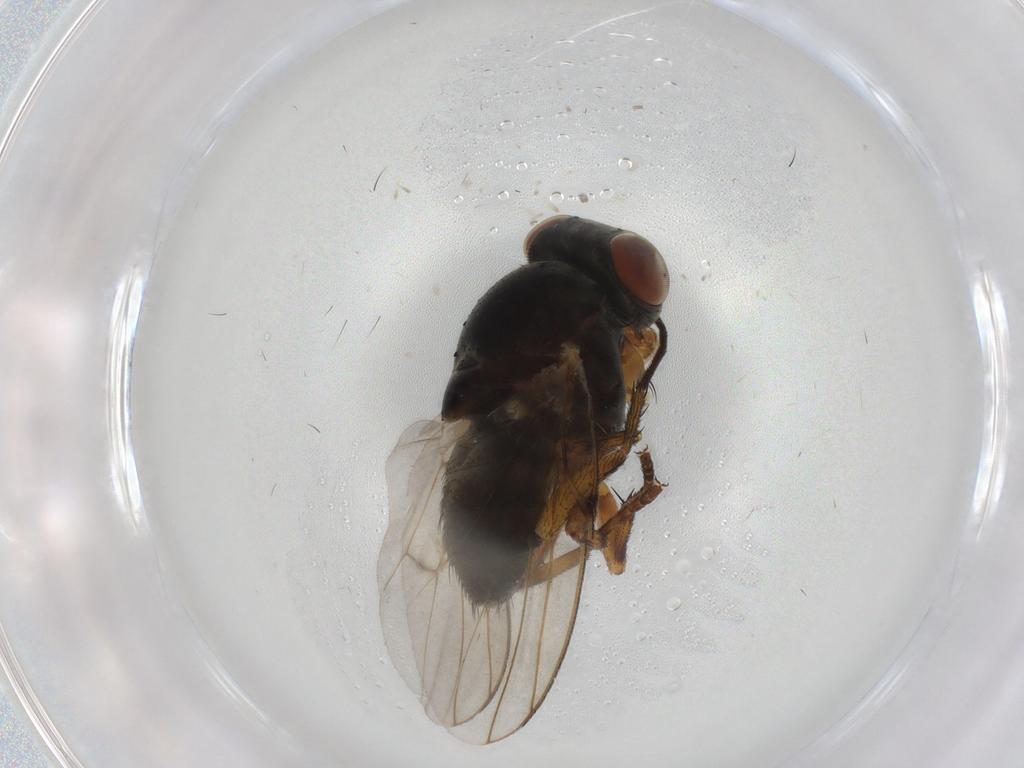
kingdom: Animalia
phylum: Arthropoda
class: Insecta
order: Diptera
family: Odiniidae
